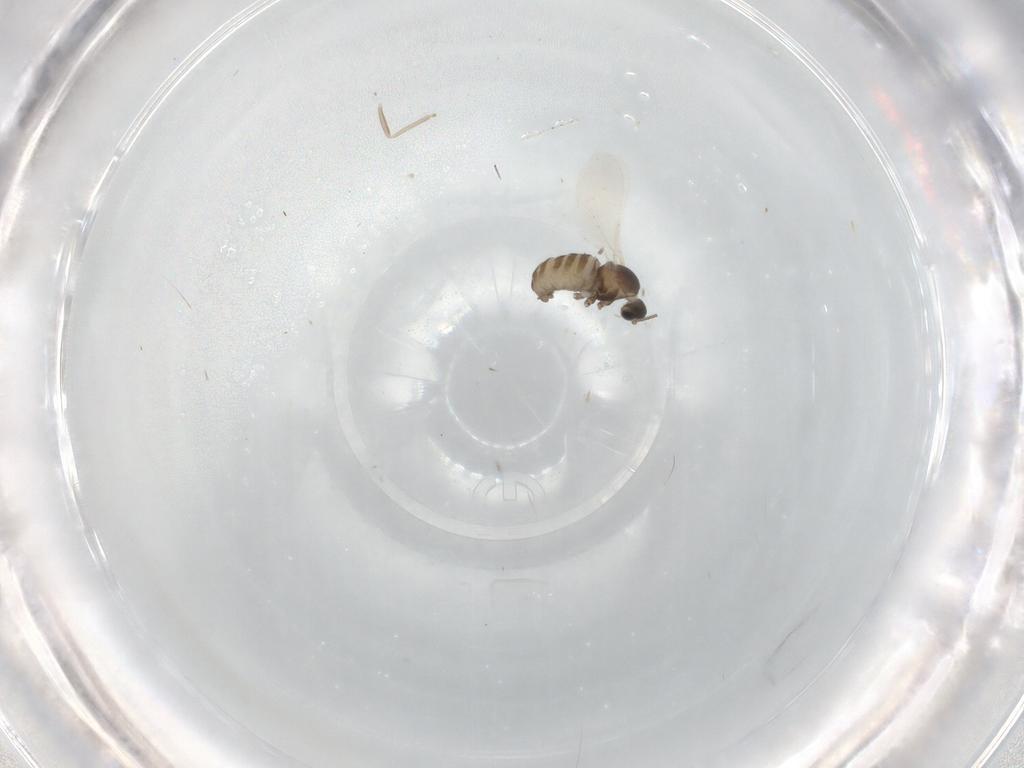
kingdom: Animalia
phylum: Arthropoda
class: Insecta
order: Diptera
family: Cecidomyiidae
